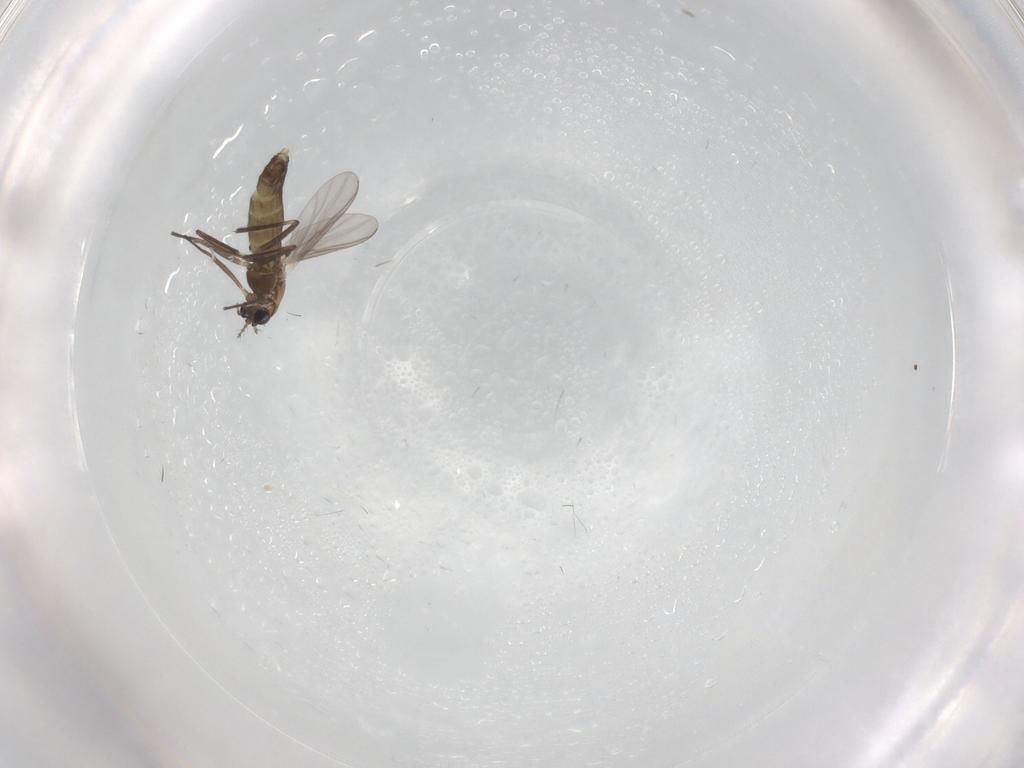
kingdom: Animalia
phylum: Arthropoda
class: Insecta
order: Diptera
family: Chironomidae
